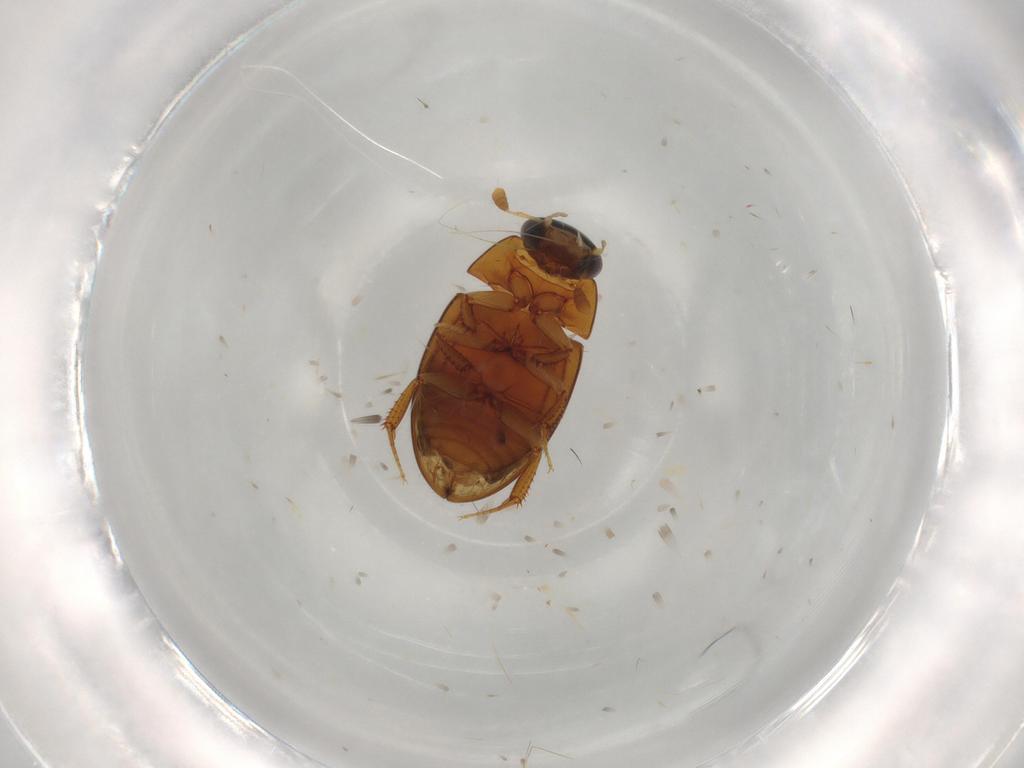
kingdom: Animalia
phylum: Arthropoda
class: Insecta
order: Coleoptera
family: Hydrophilidae
